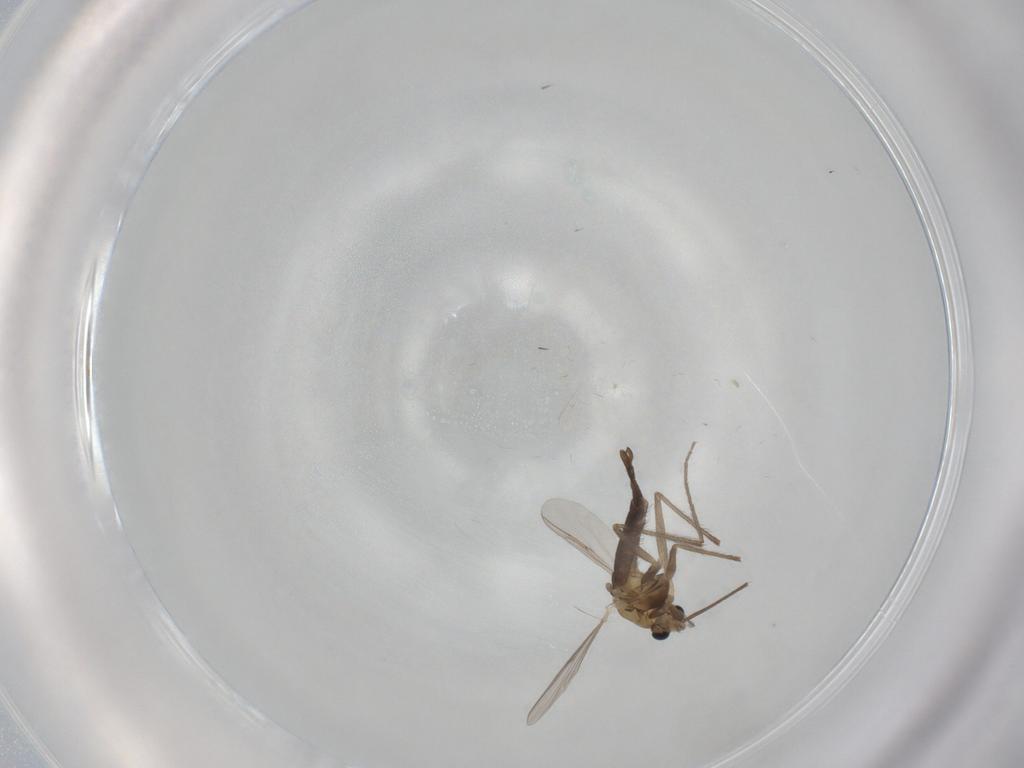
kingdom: Animalia
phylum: Arthropoda
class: Insecta
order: Diptera
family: Chironomidae
